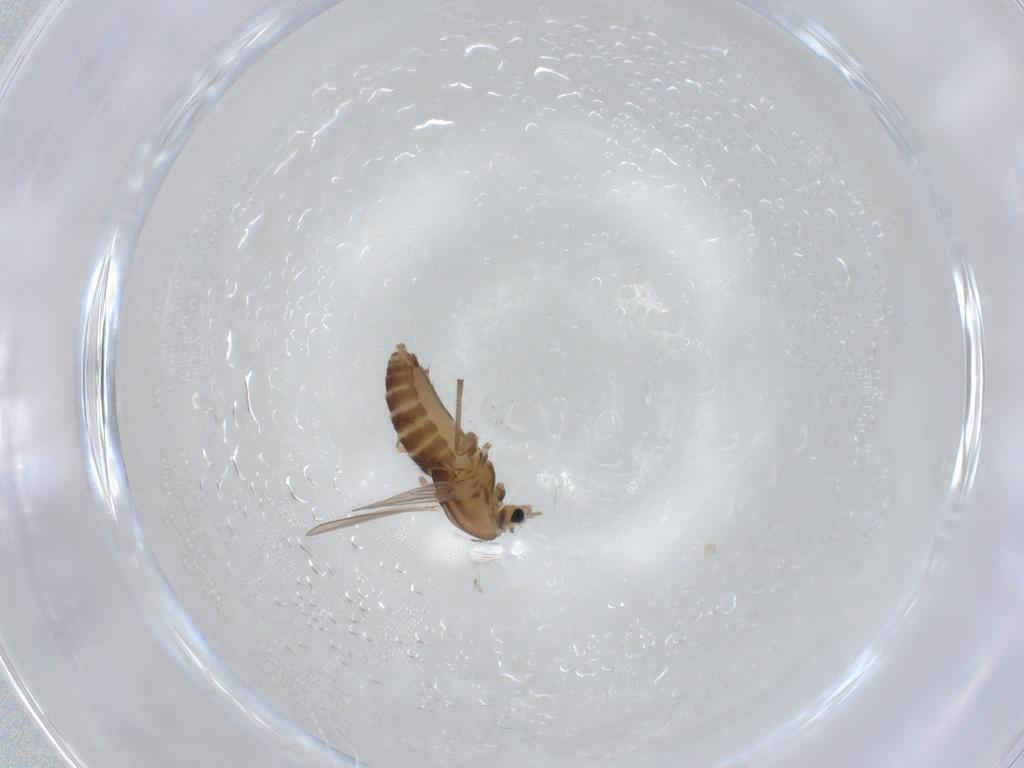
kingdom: Animalia
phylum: Arthropoda
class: Insecta
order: Diptera
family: Chironomidae
